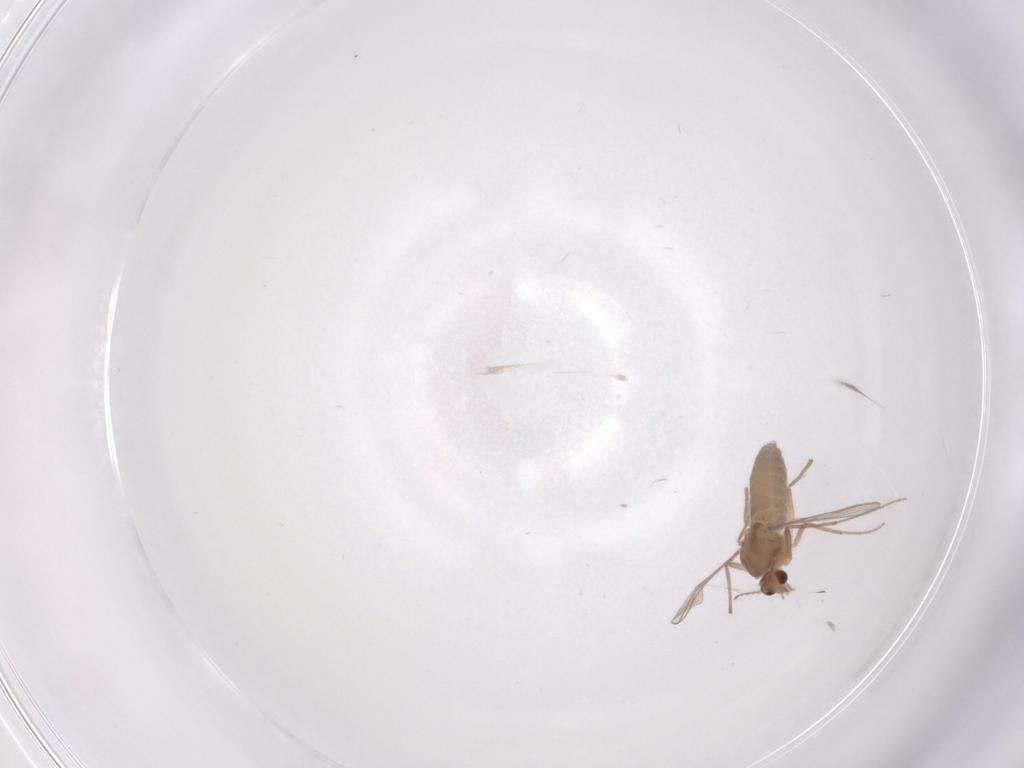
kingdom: Animalia
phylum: Arthropoda
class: Insecta
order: Diptera
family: Chironomidae
